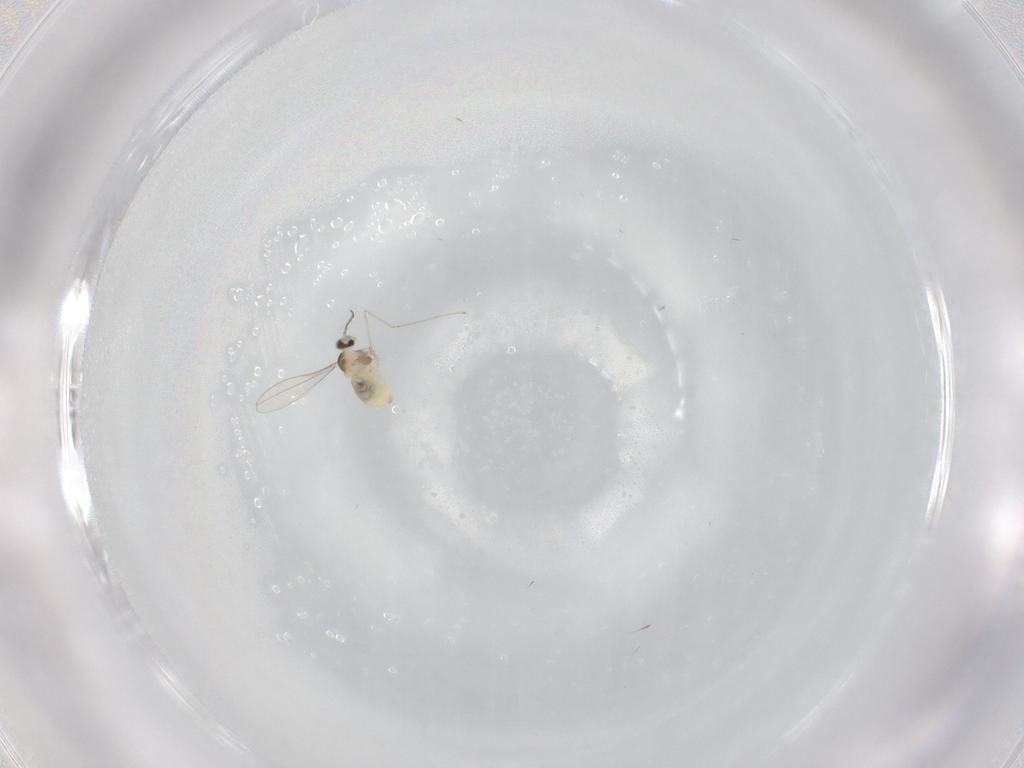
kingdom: Animalia
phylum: Arthropoda
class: Insecta
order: Diptera
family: Cecidomyiidae
